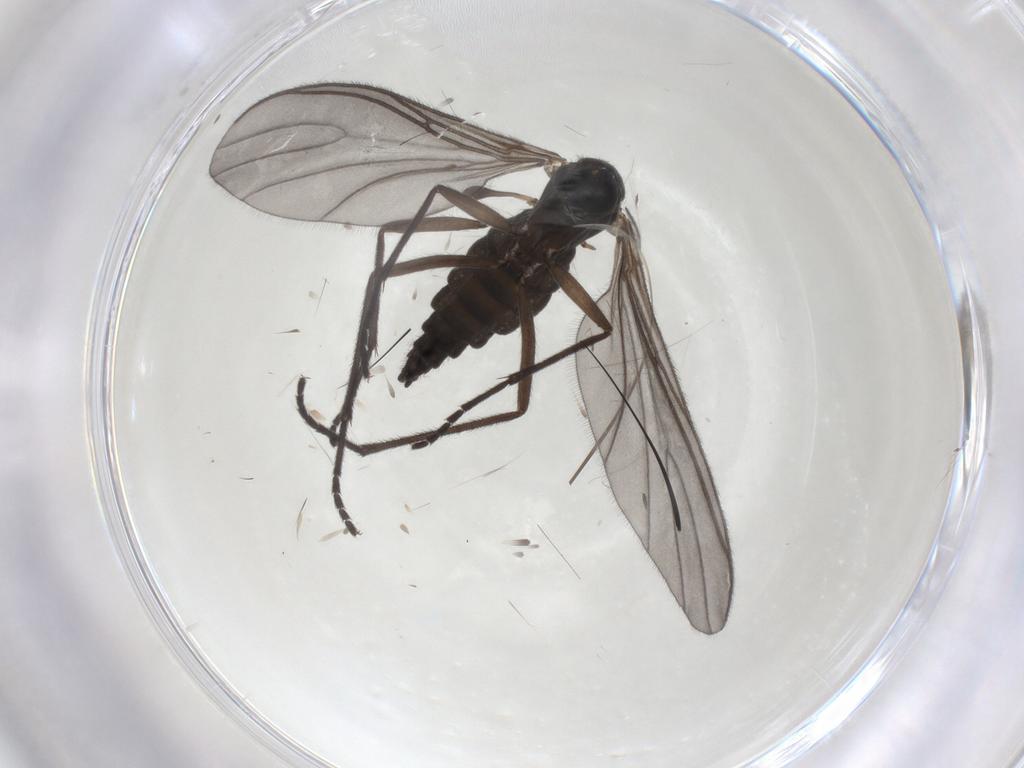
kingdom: Animalia
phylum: Arthropoda
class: Insecta
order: Diptera
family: Sciaridae
